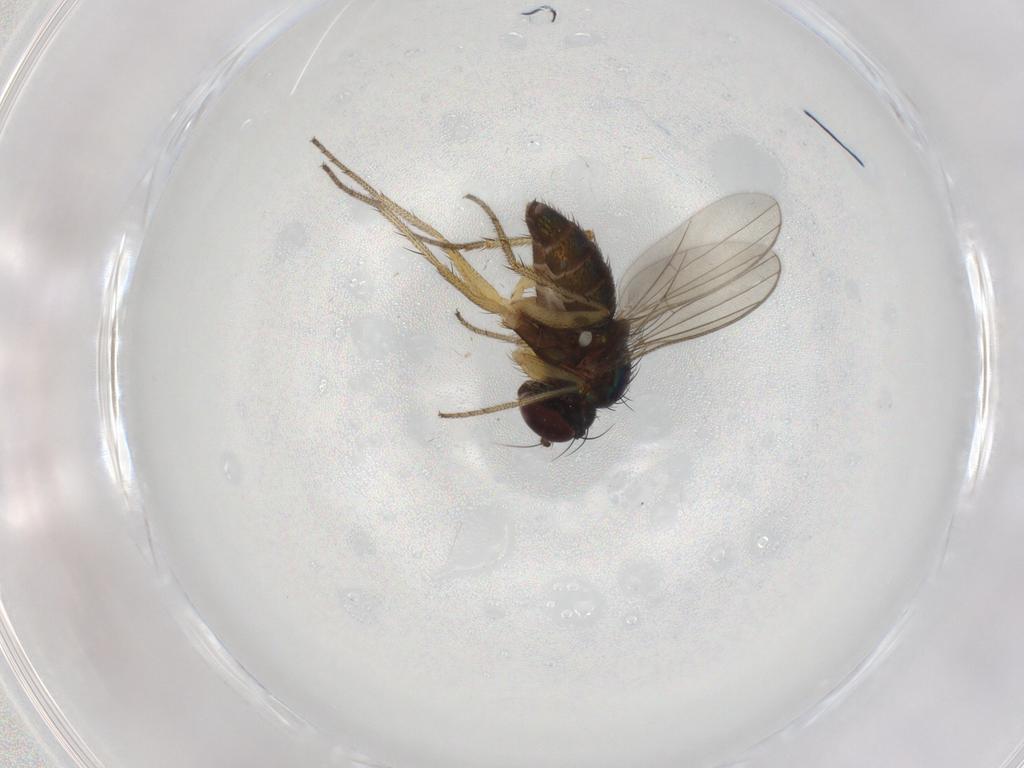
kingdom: Animalia
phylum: Arthropoda
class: Insecta
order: Diptera
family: Dolichopodidae
